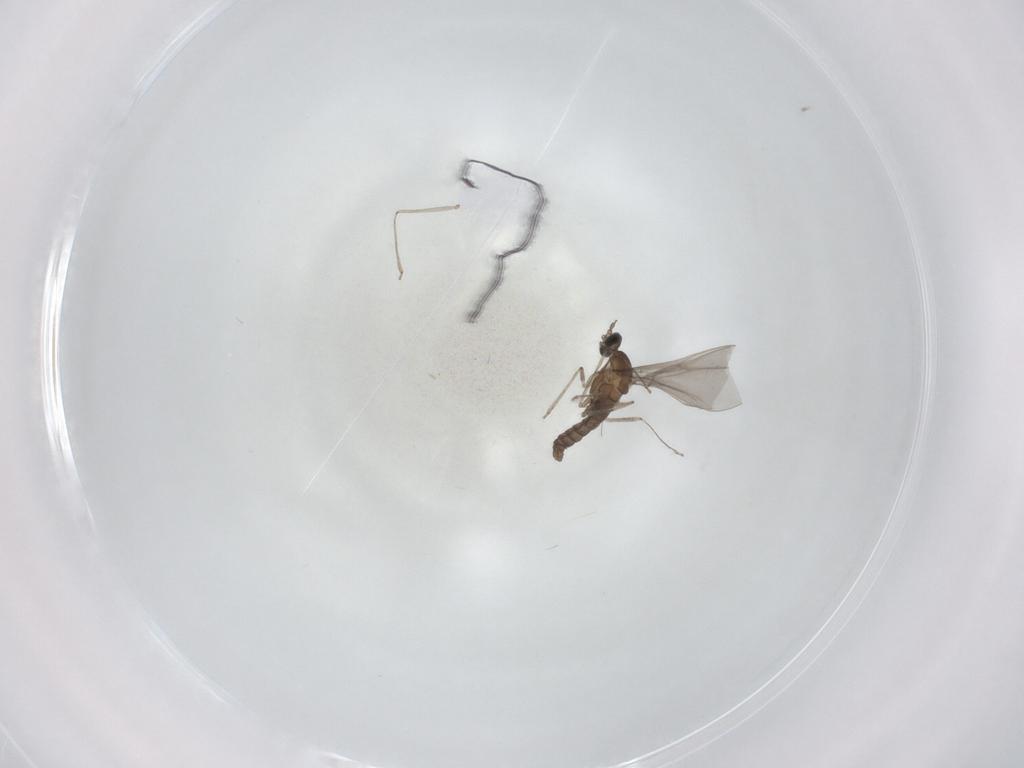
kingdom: Animalia
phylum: Arthropoda
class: Insecta
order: Diptera
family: Cecidomyiidae
